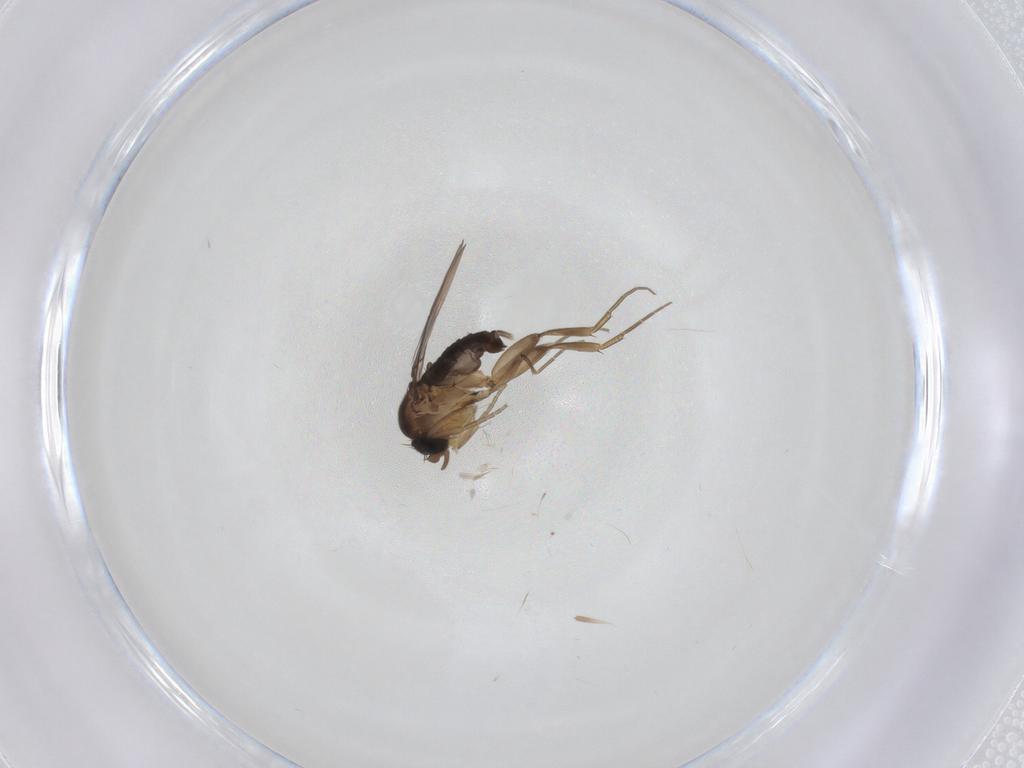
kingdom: Animalia
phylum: Arthropoda
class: Insecta
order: Diptera
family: Phoridae
